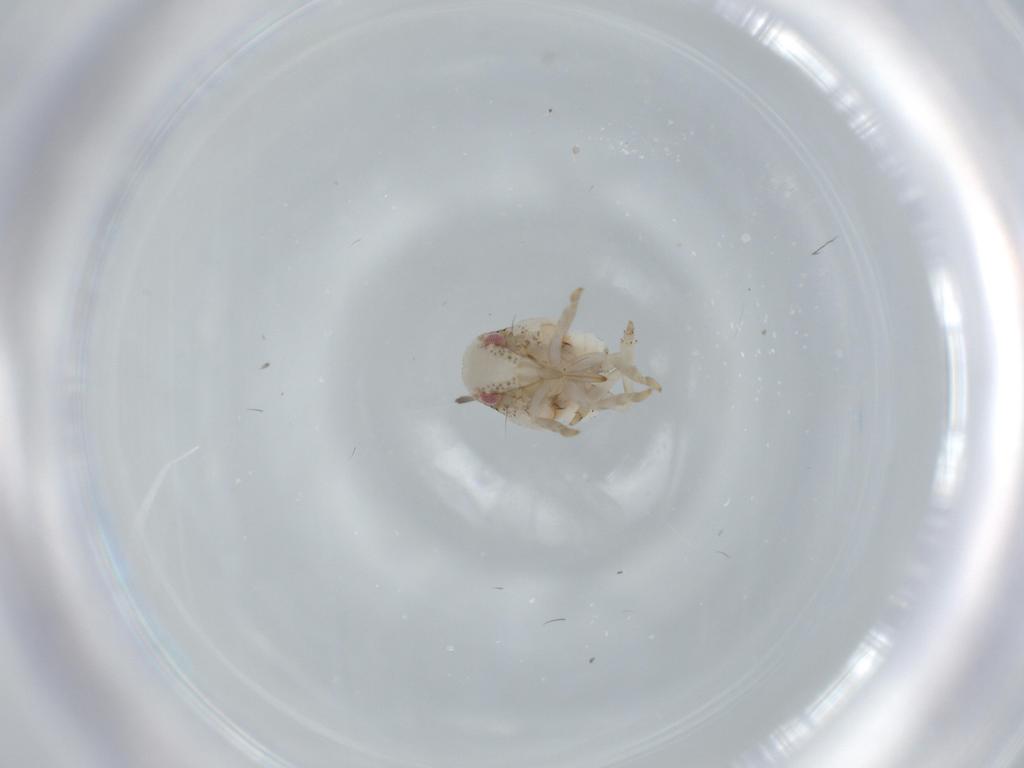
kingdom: Animalia
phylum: Arthropoda
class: Insecta
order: Hemiptera
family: Acanaloniidae
